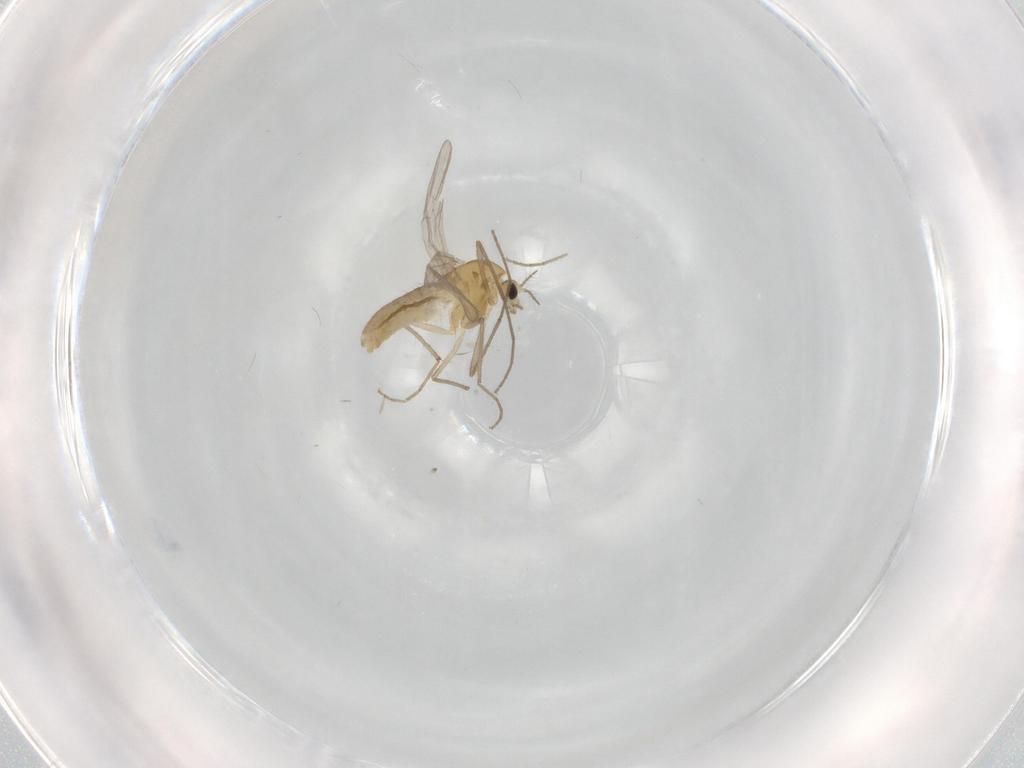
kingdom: Animalia
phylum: Arthropoda
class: Insecta
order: Diptera
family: Chironomidae
